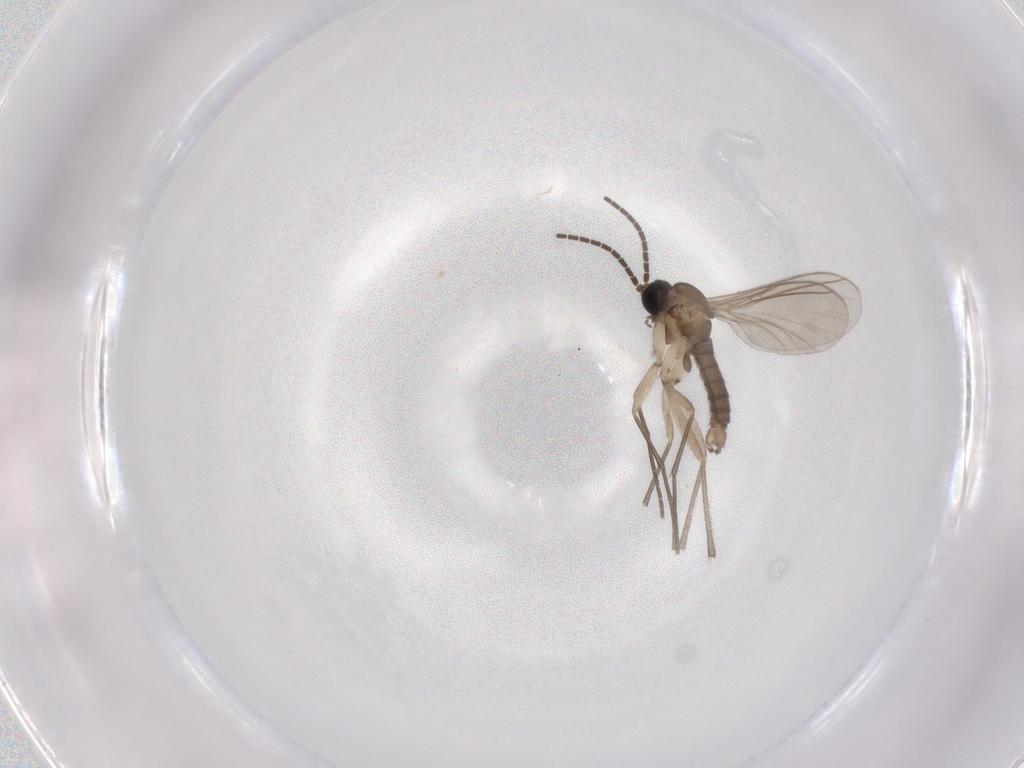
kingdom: Animalia
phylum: Arthropoda
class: Insecta
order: Diptera
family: Sciaridae
